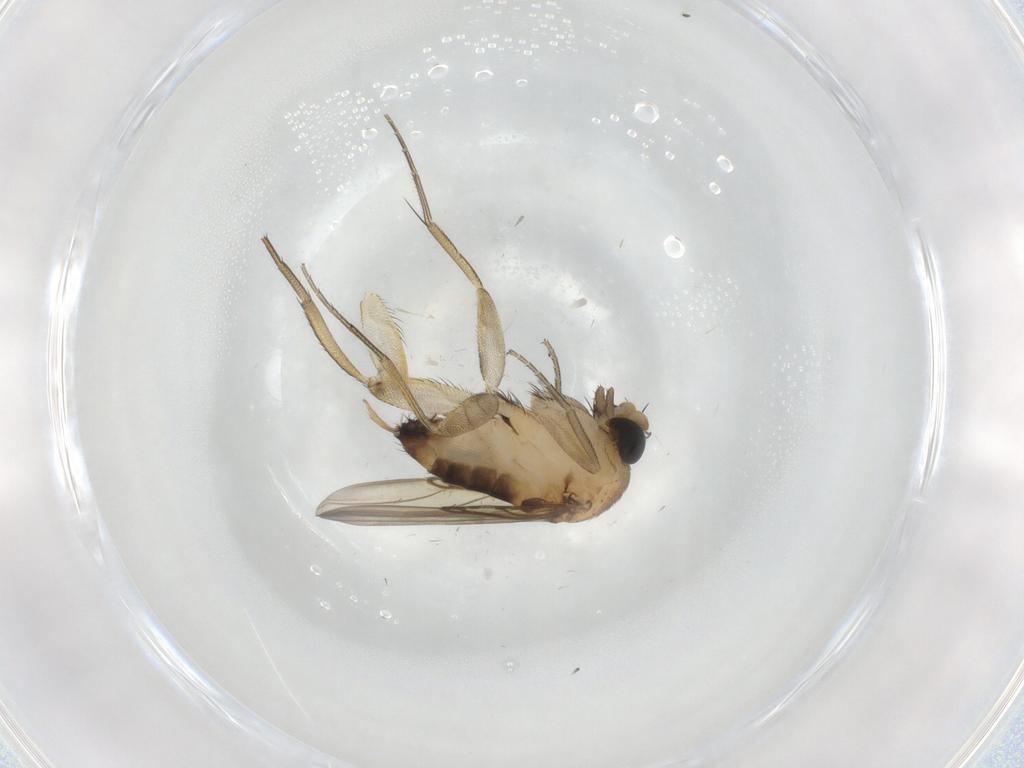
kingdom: Animalia
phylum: Arthropoda
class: Insecta
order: Diptera
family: Phoridae
